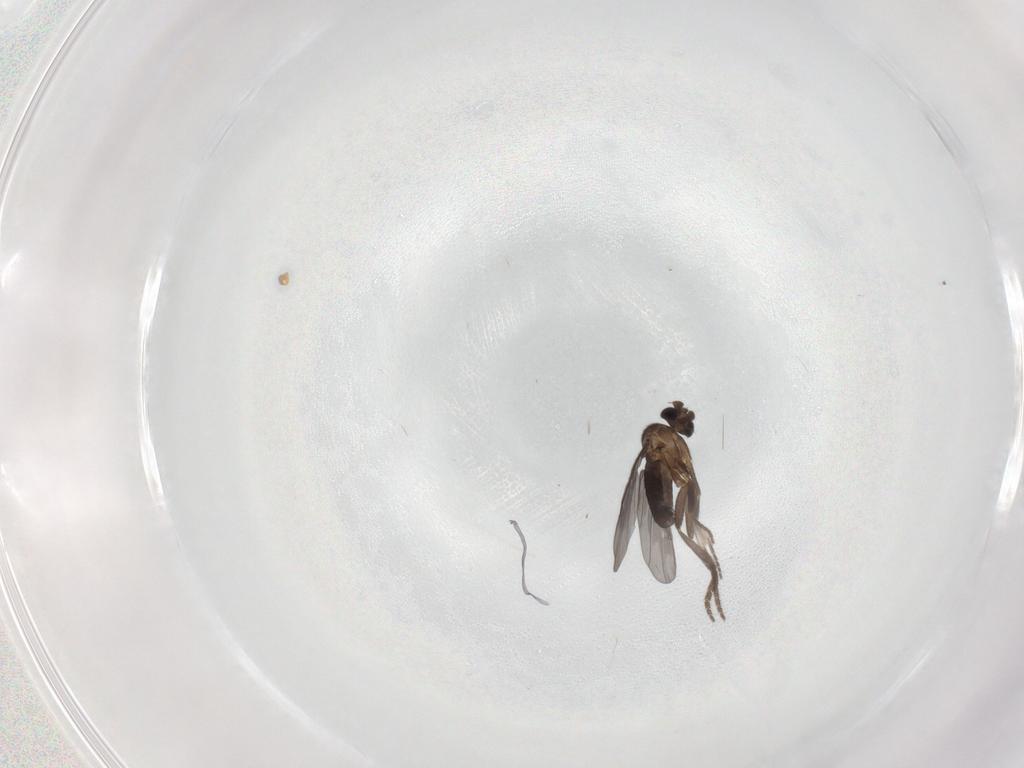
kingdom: Animalia
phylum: Arthropoda
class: Insecta
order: Diptera
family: Phoridae
